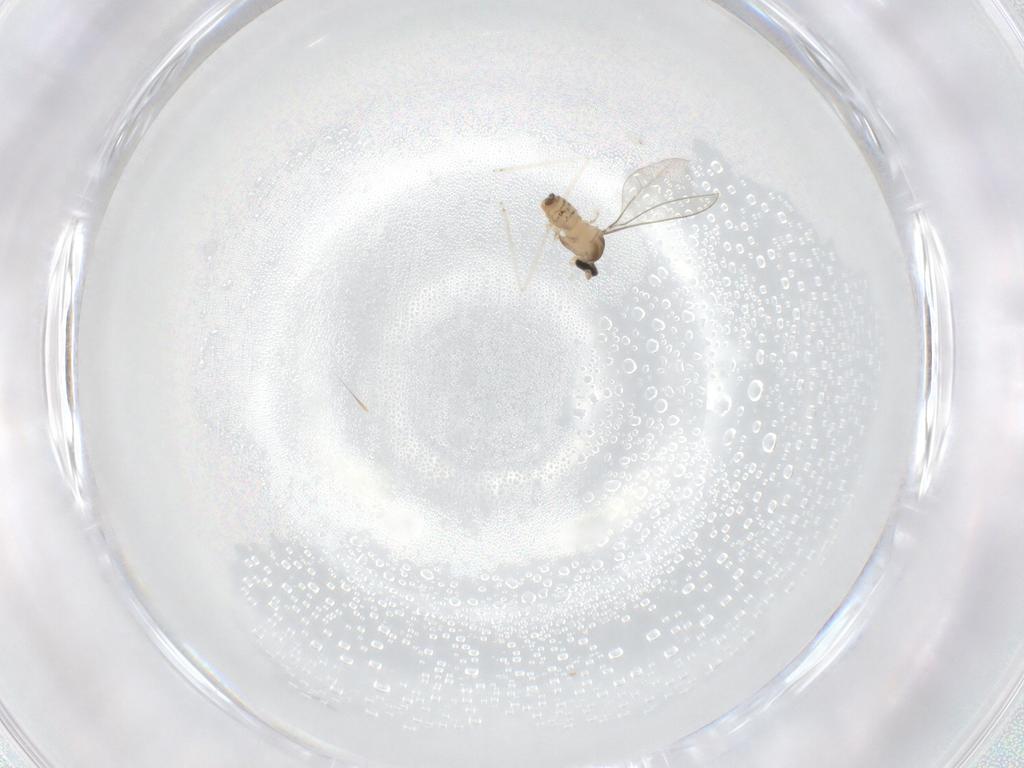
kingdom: Animalia
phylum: Arthropoda
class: Insecta
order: Diptera
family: Cecidomyiidae
